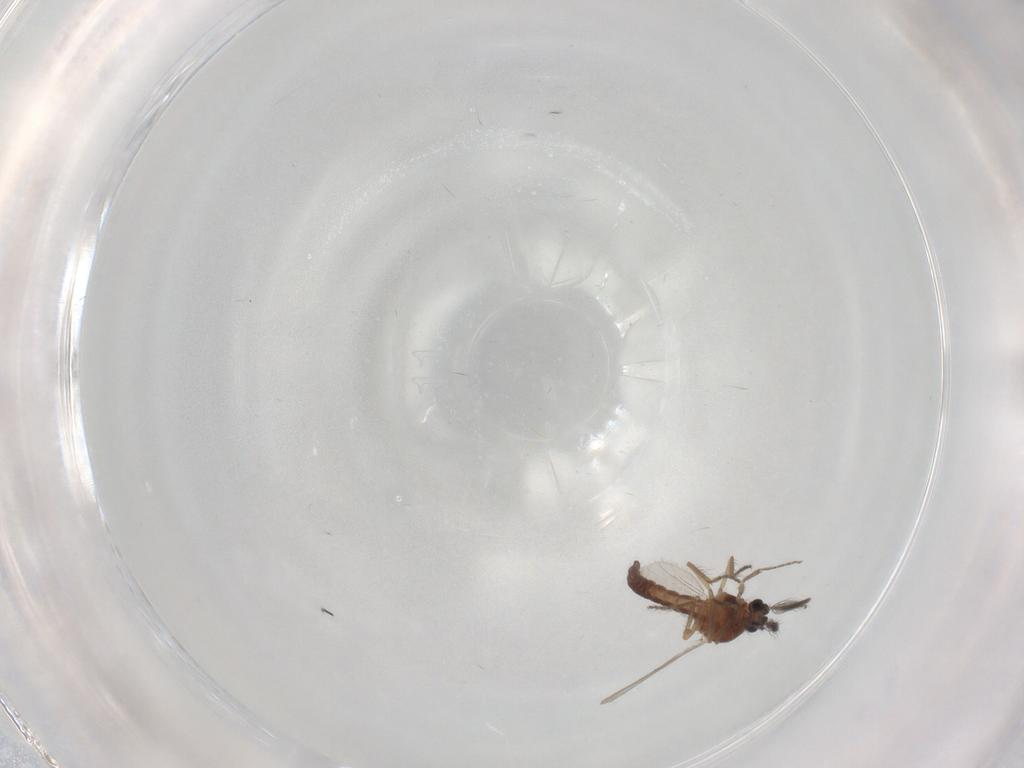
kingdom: Animalia
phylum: Arthropoda
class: Insecta
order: Diptera
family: Ceratopogonidae
